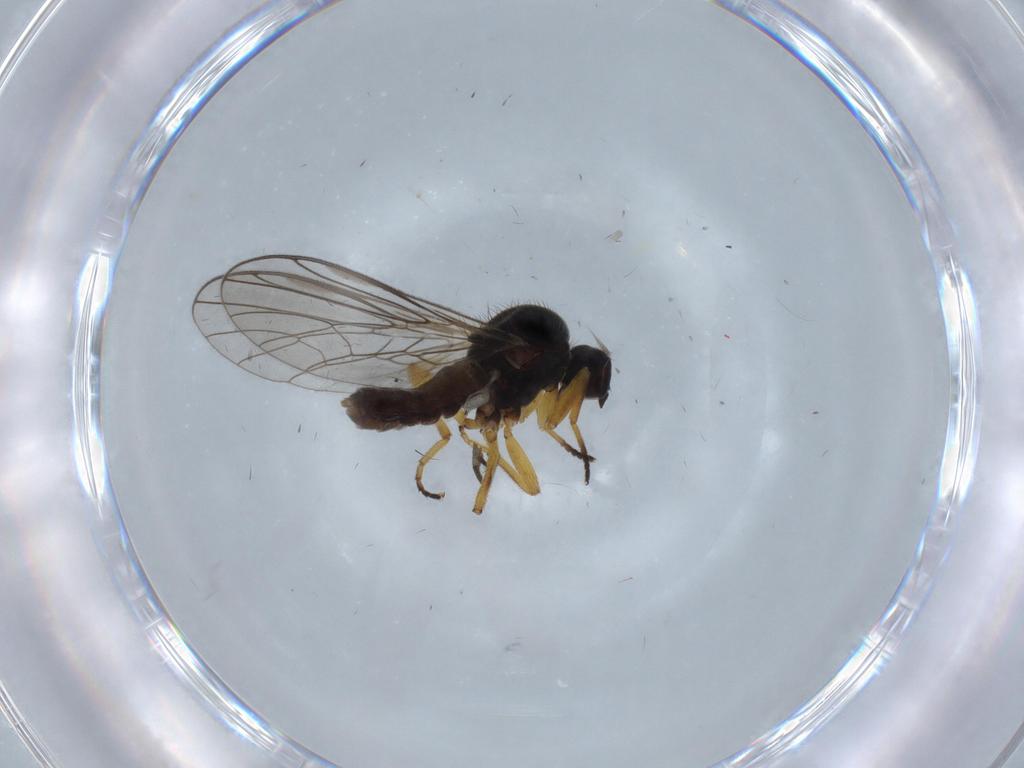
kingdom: Animalia
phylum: Arthropoda
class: Insecta
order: Diptera
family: Empididae
